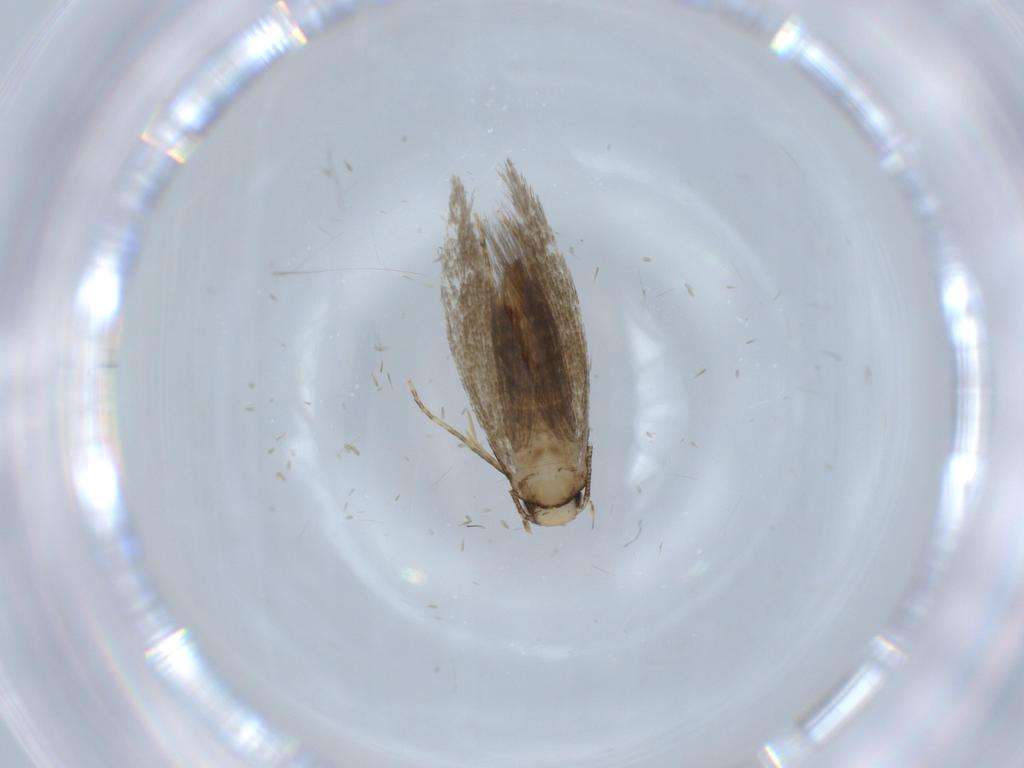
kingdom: Animalia
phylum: Arthropoda
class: Insecta
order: Lepidoptera
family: Tineidae
